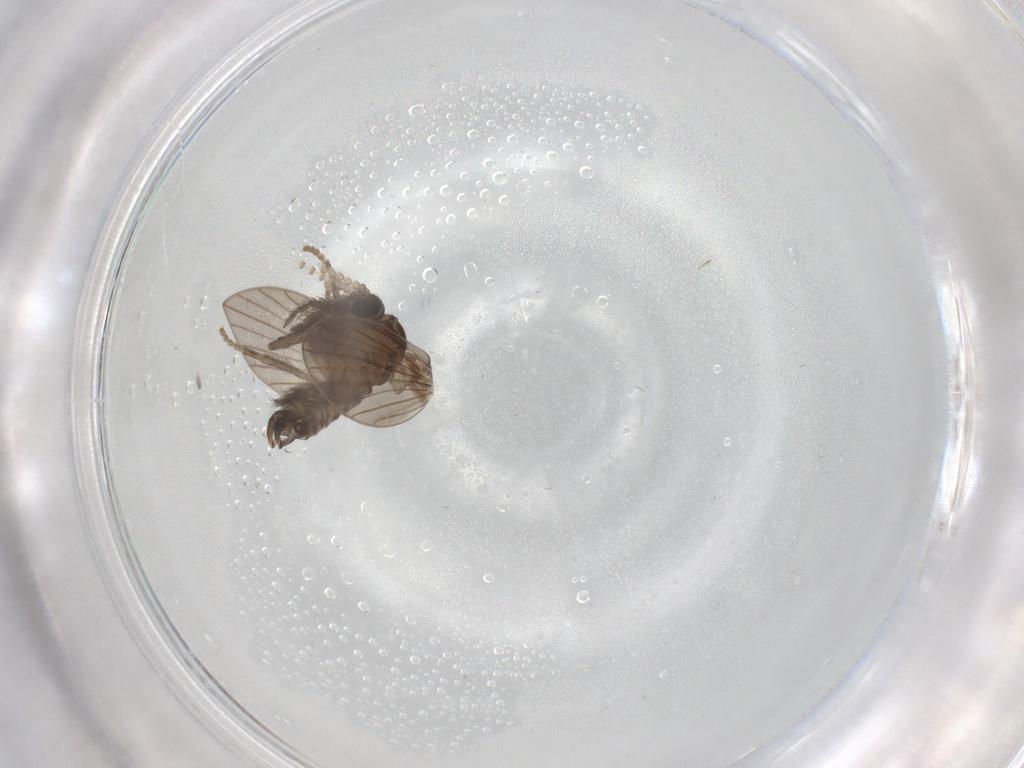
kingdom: Animalia
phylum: Arthropoda
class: Insecta
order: Diptera
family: Psychodidae
